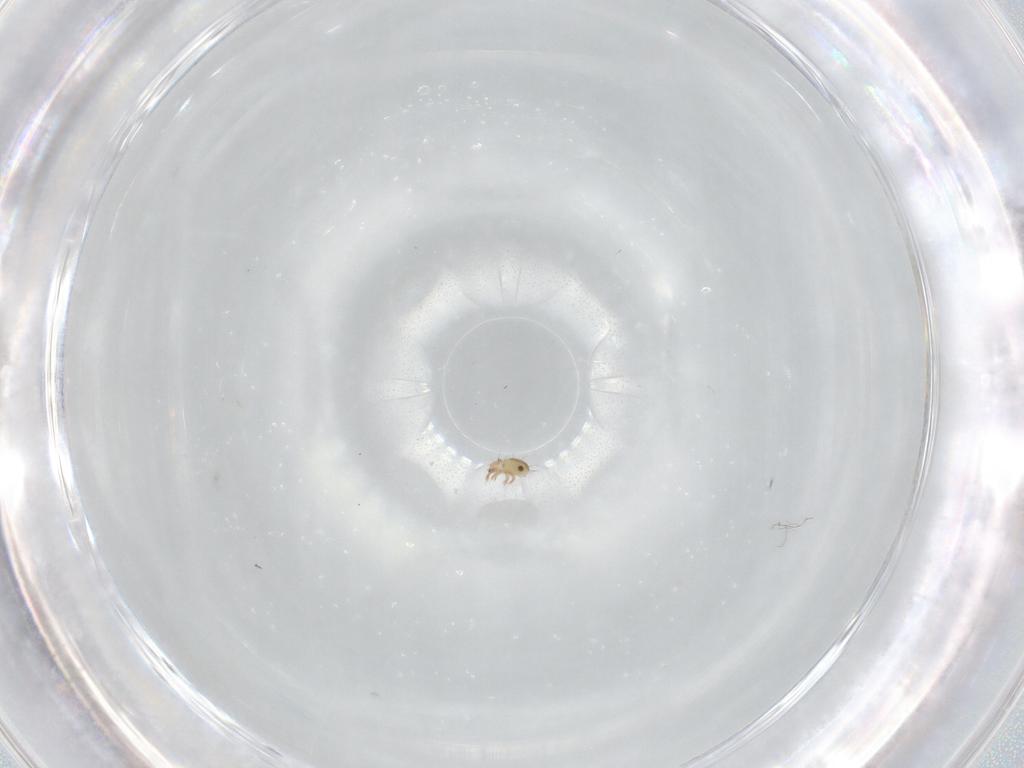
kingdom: Animalia
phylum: Arthropoda
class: Arachnida
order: Sarcoptiformes
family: Humerobatidae
